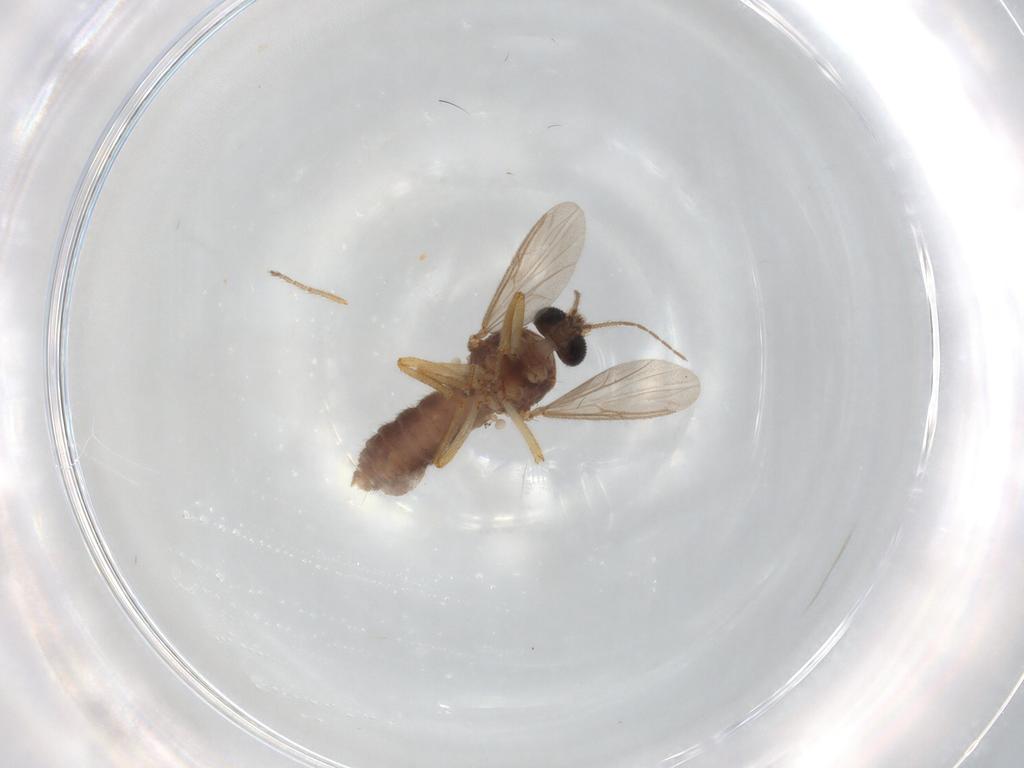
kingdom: Animalia
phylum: Arthropoda
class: Insecta
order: Diptera
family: Ceratopogonidae
